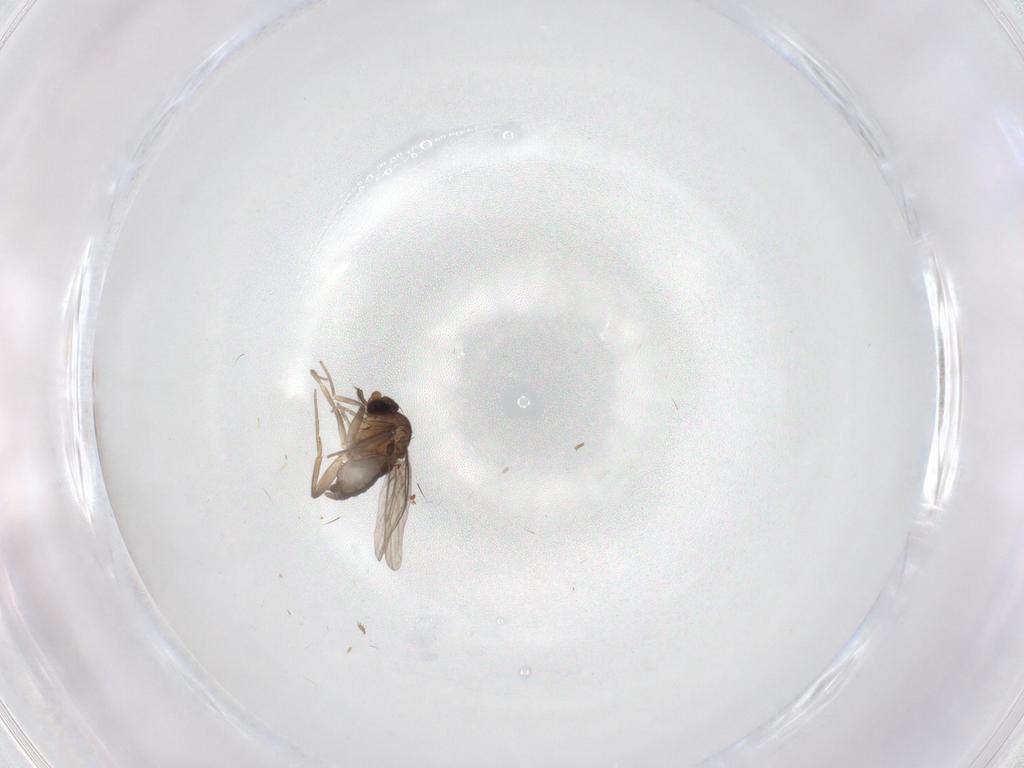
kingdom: Animalia
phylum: Arthropoda
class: Insecta
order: Diptera
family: Phoridae
